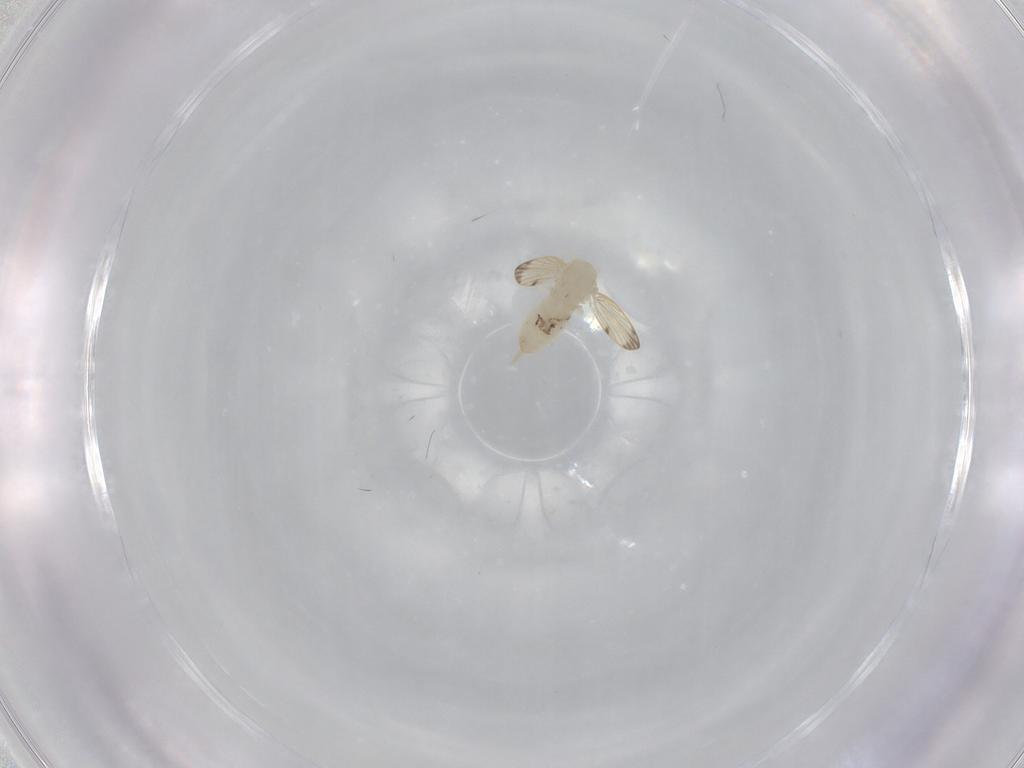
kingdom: Animalia
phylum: Arthropoda
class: Insecta
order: Diptera
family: Psychodidae
